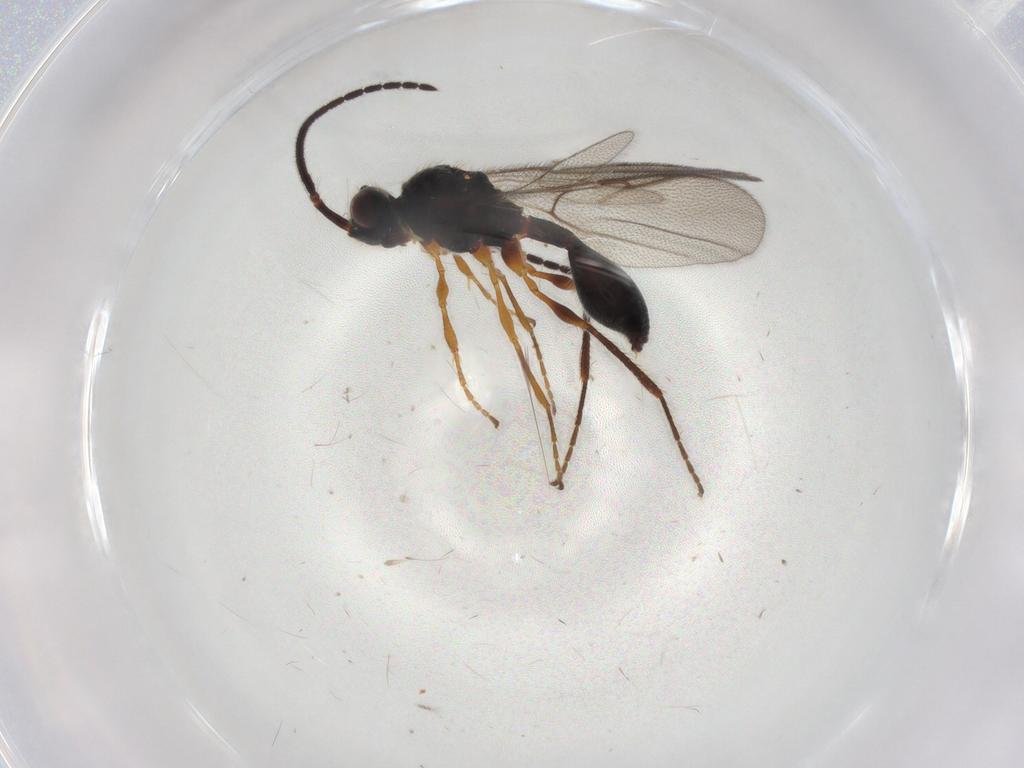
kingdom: Animalia
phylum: Arthropoda
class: Insecta
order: Hymenoptera
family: Diapriidae
